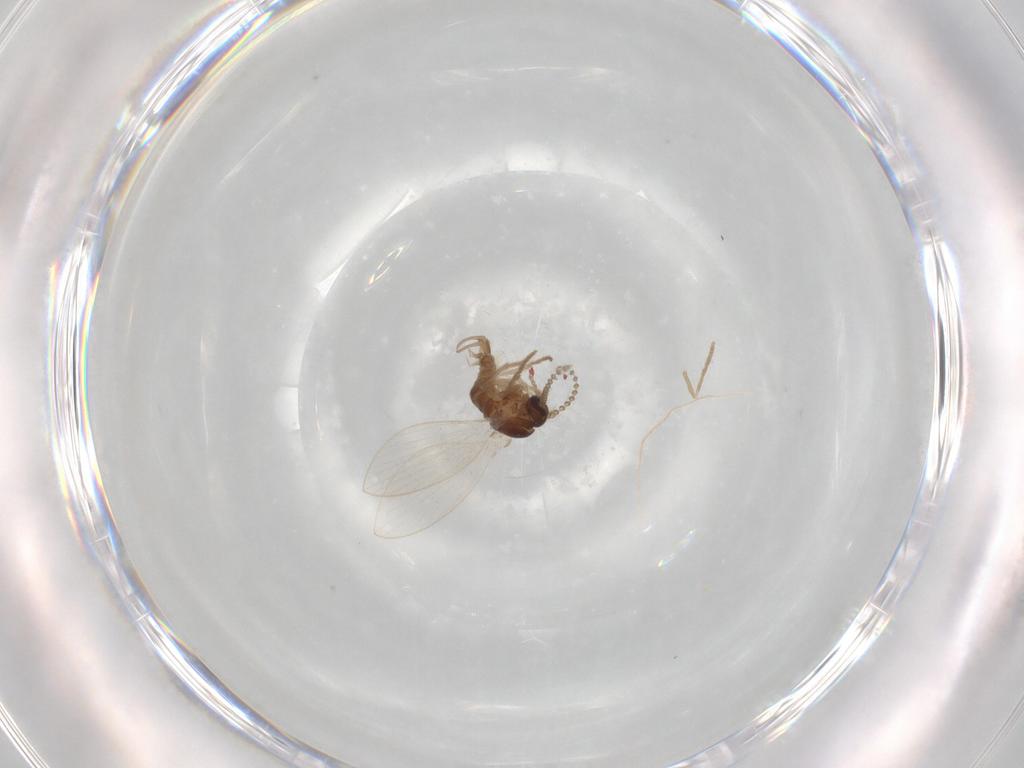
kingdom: Animalia
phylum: Arthropoda
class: Insecta
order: Diptera
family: Psychodidae
